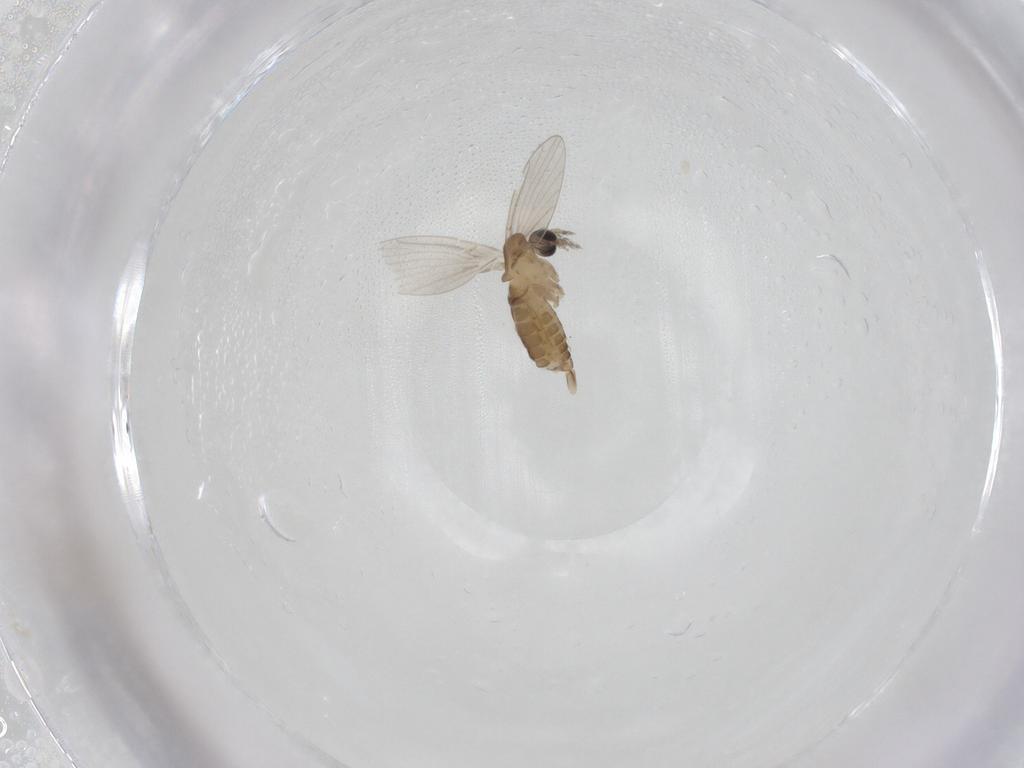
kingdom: Animalia
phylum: Arthropoda
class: Insecta
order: Diptera
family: Psychodidae
